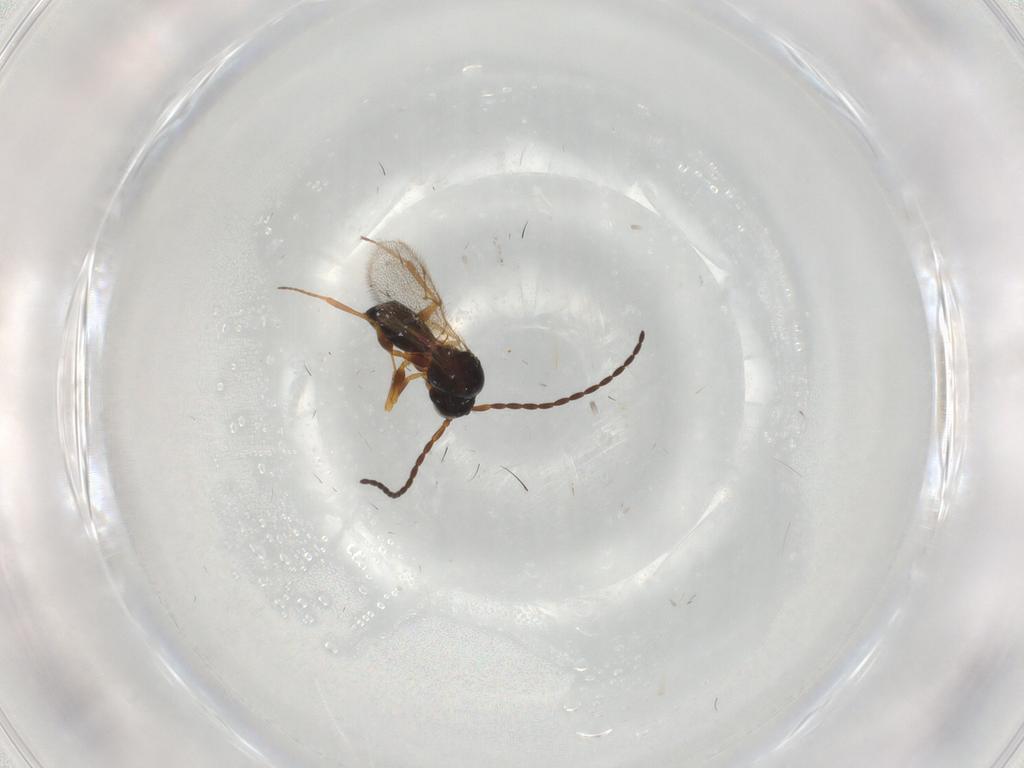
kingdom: Animalia
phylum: Arthropoda
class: Insecta
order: Hymenoptera
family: Figitidae
